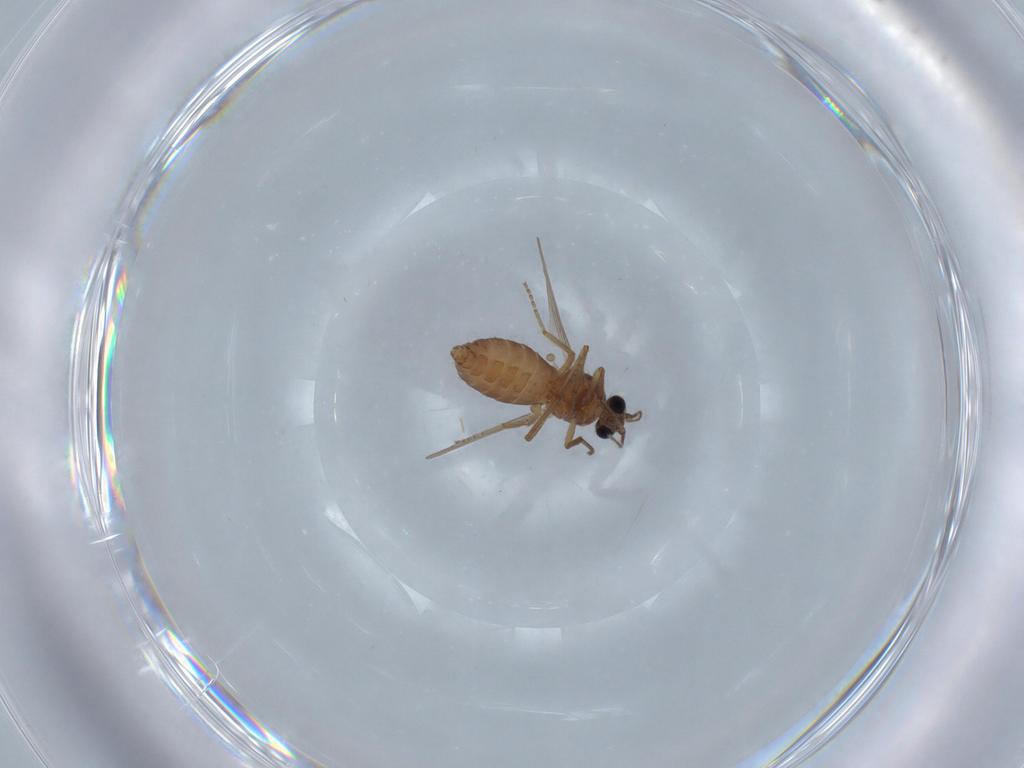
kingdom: Animalia
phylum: Arthropoda
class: Insecta
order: Diptera
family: Ceratopogonidae
